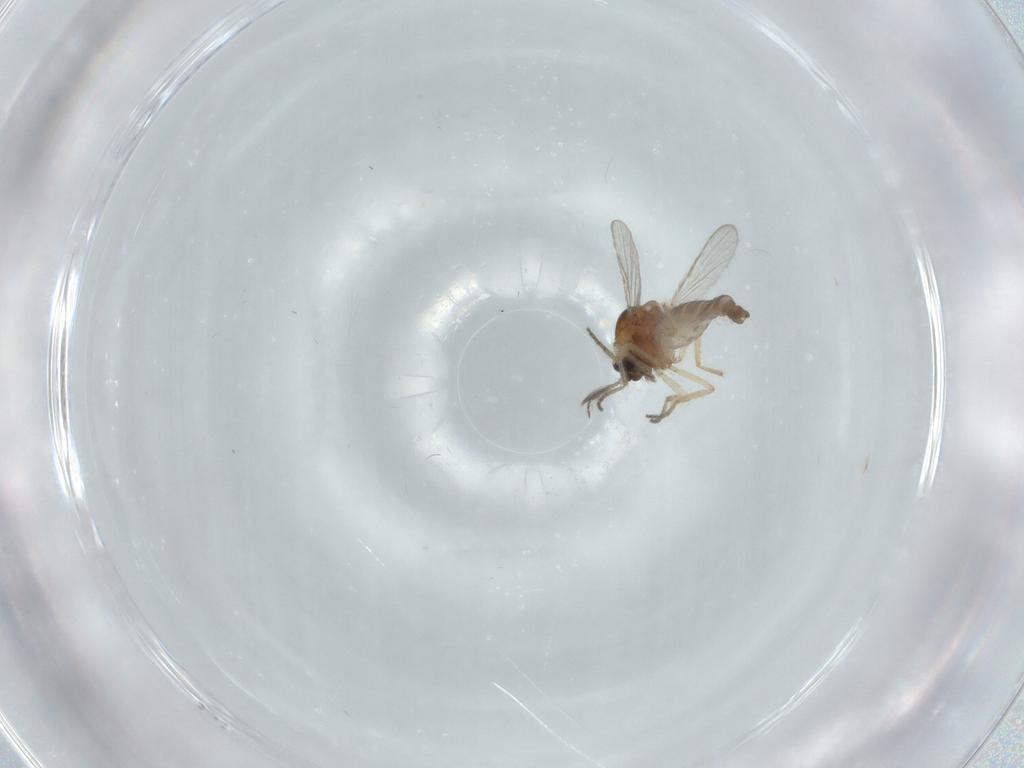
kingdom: Animalia
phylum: Arthropoda
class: Insecta
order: Diptera
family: Ceratopogonidae
